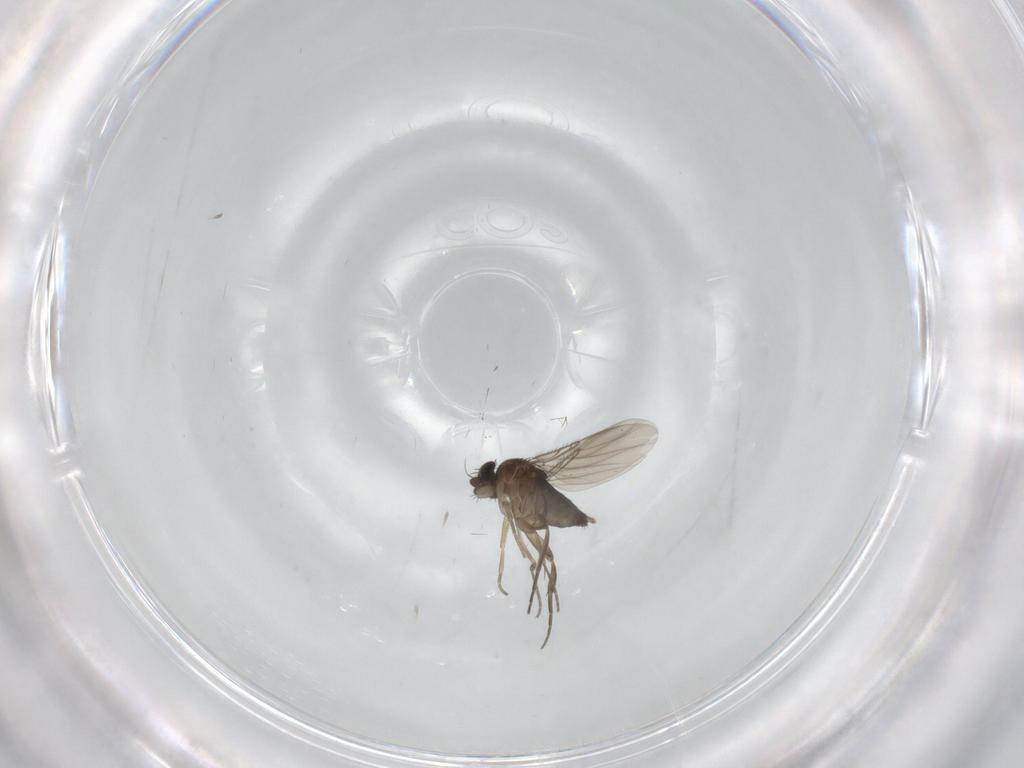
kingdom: Animalia
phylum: Arthropoda
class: Insecta
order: Diptera
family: Phoridae
